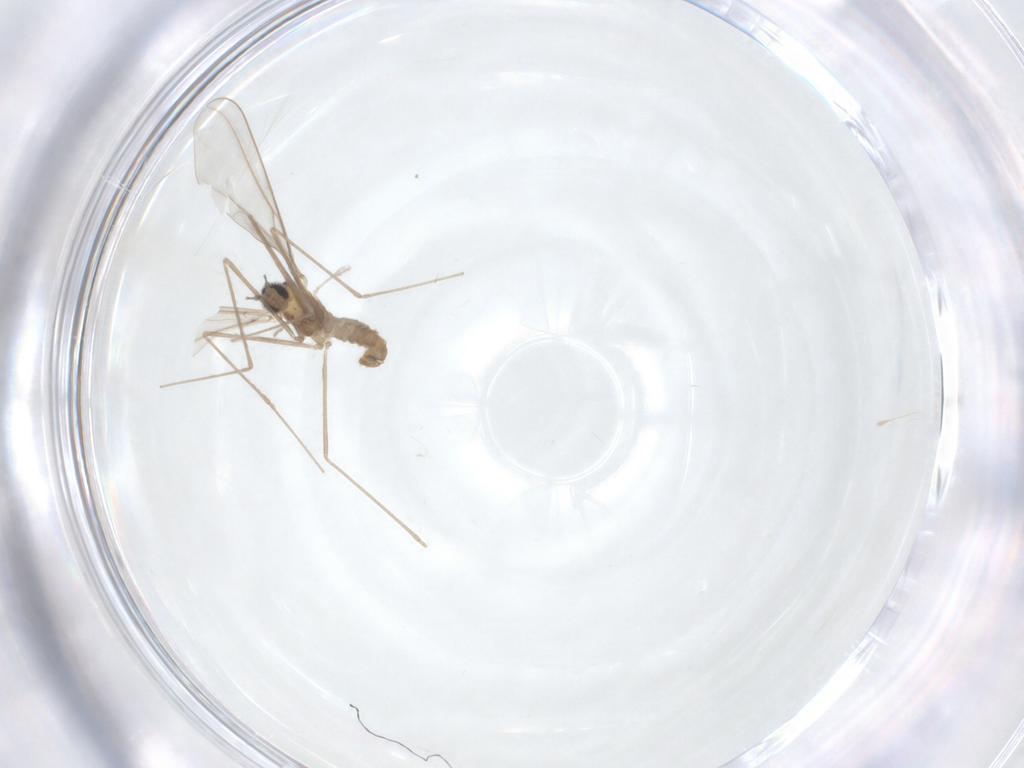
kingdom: Animalia
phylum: Arthropoda
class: Insecta
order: Diptera
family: Cecidomyiidae
